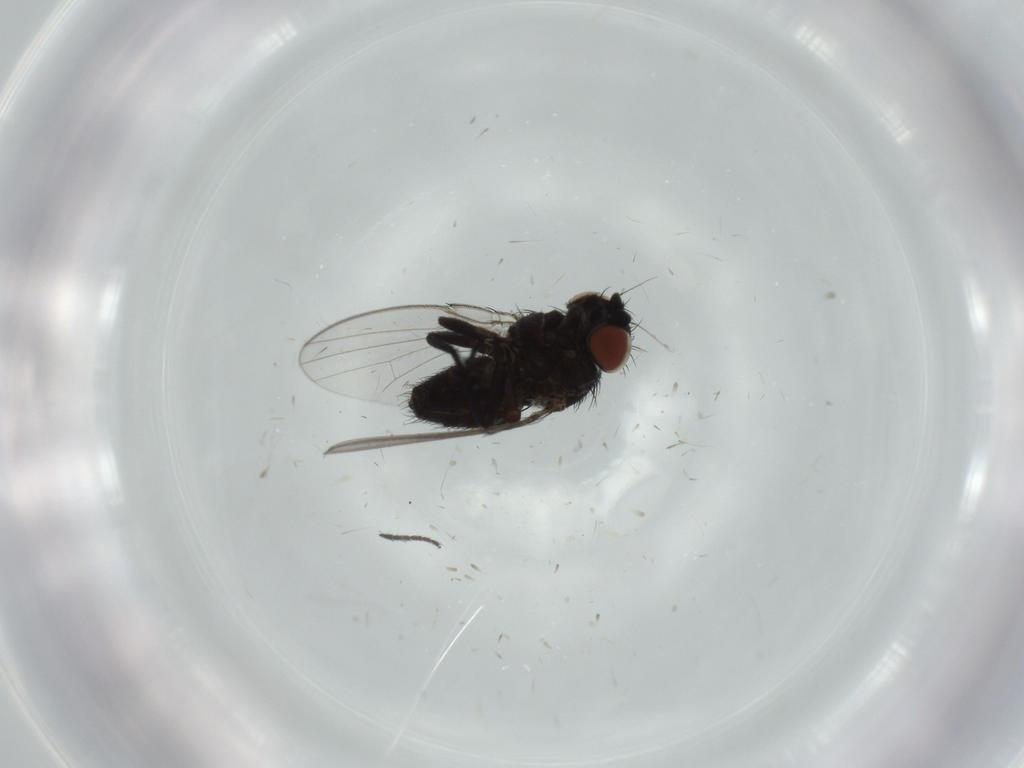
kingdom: Animalia
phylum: Arthropoda
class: Insecta
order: Diptera
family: Milichiidae
